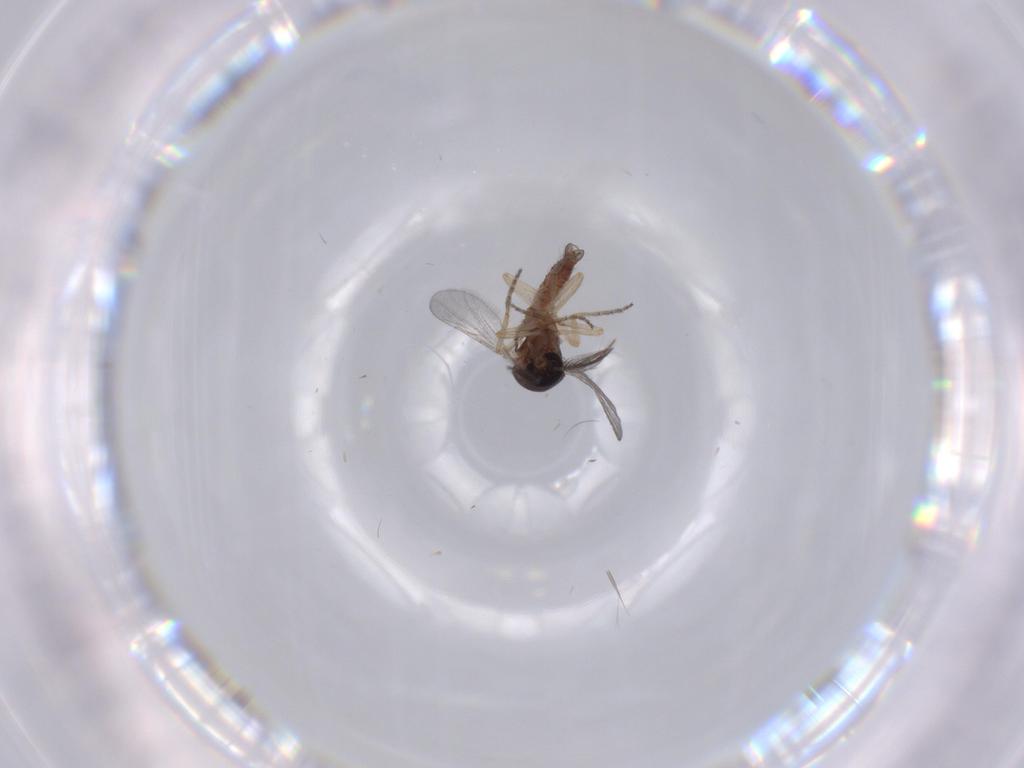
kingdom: Animalia
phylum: Arthropoda
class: Insecta
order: Diptera
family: Ceratopogonidae
